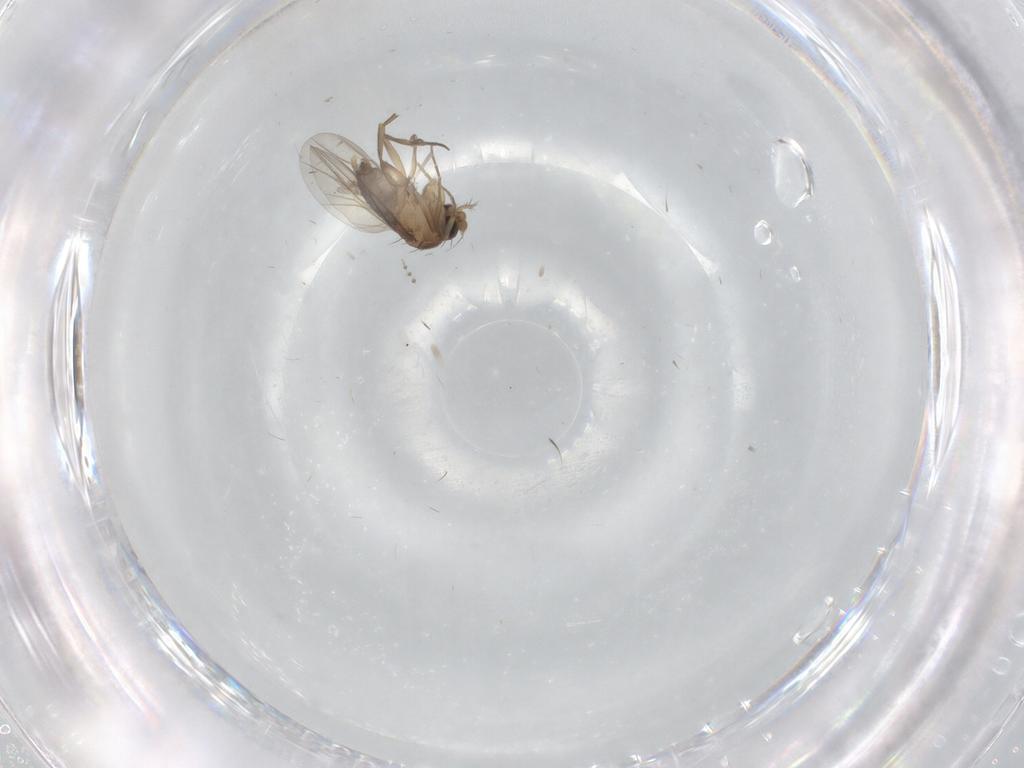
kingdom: Animalia
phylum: Arthropoda
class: Insecta
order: Diptera
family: Psychodidae
